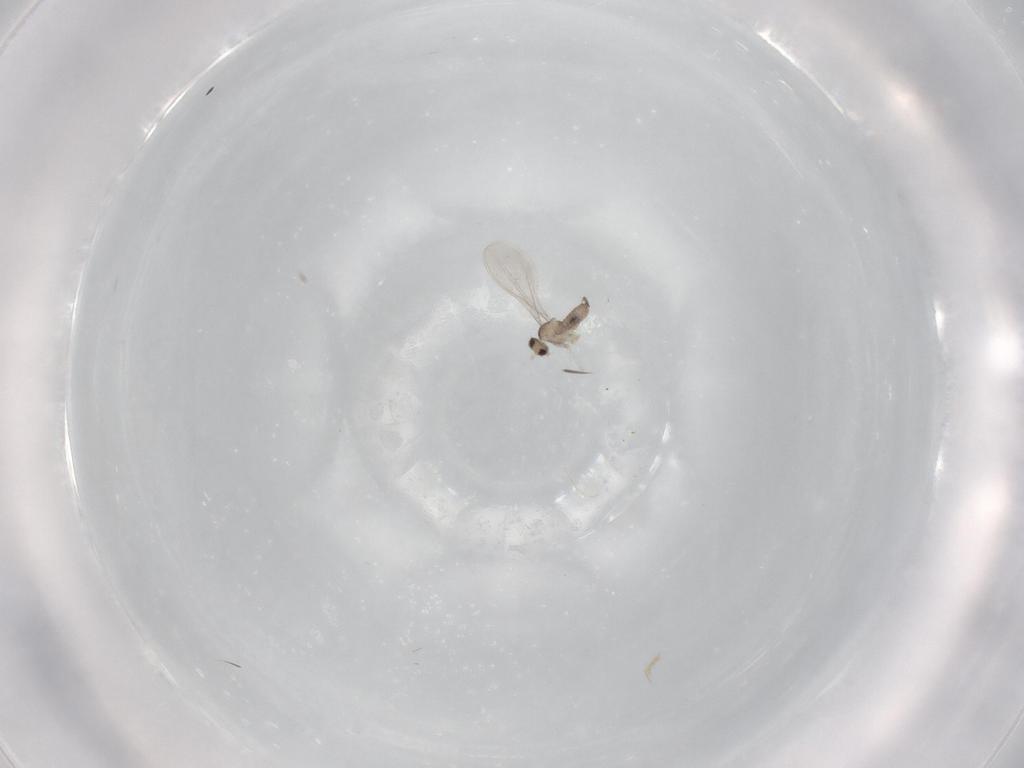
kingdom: Animalia
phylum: Arthropoda
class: Insecta
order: Diptera
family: Cecidomyiidae
